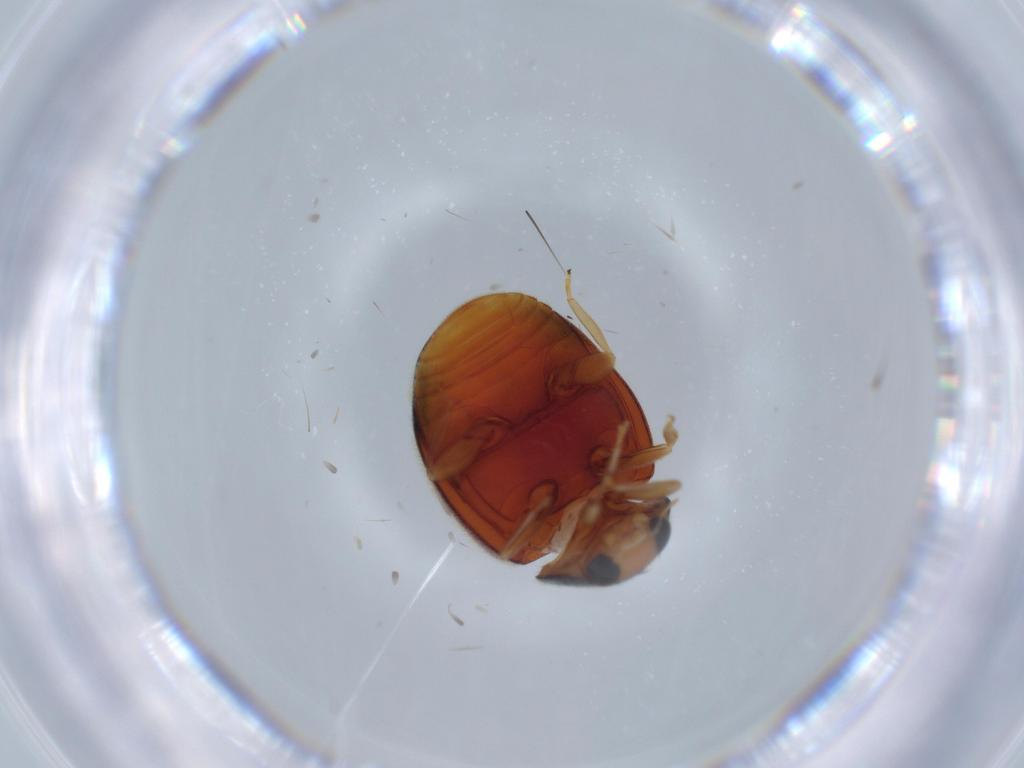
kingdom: Animalia
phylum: Arthropoda
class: Insecta
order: Coleoptera
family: Coccinellidae
